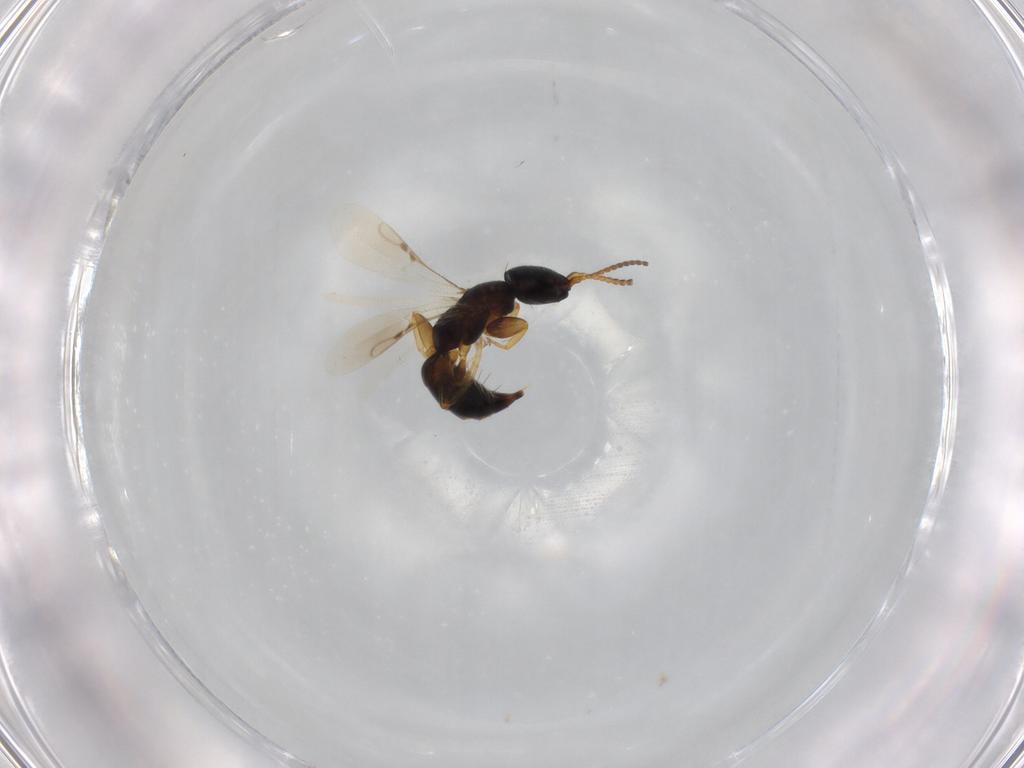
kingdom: Animalia
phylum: Arthropoda
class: Insecta
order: Hymenoptera
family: Bethylidae
